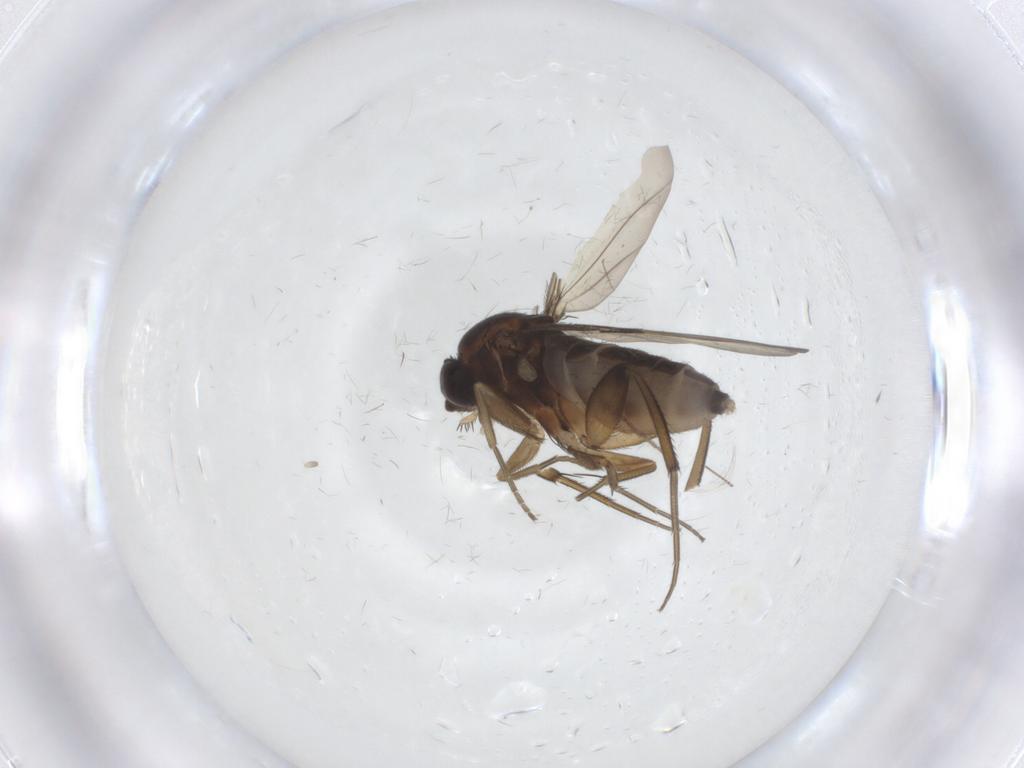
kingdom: Animalia
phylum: Arthropoda
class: Insecta
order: Diptera
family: Phoridae
